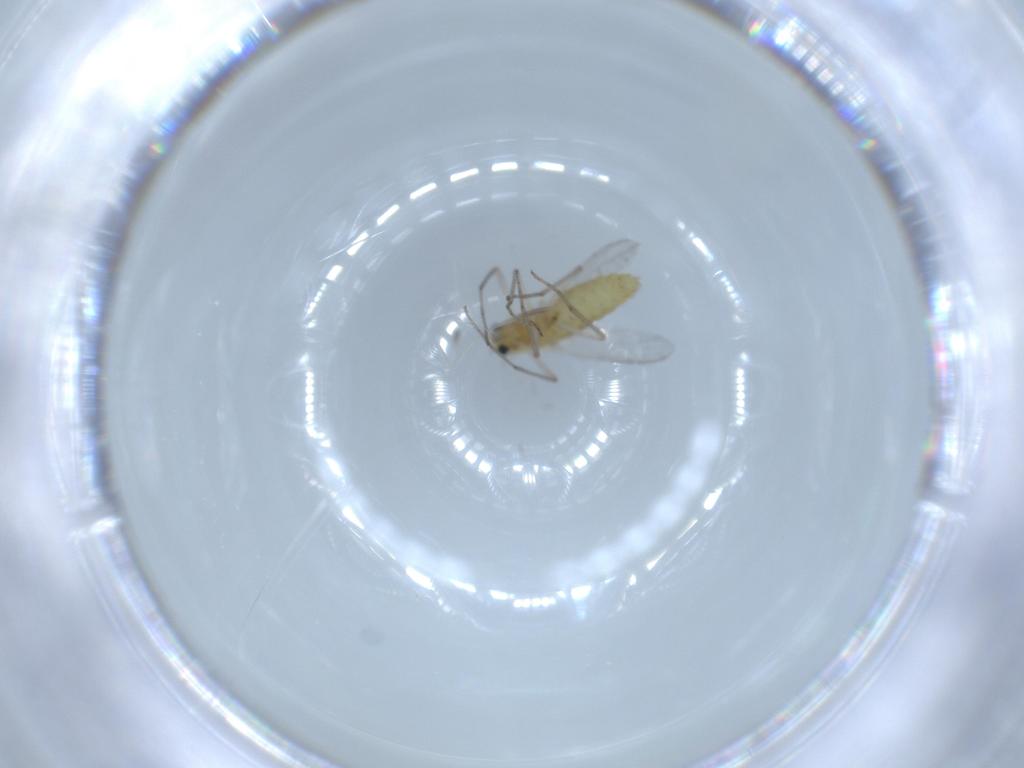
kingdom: Animalia
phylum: Arthropoda
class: Insecta
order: Diptera
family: Chironomidae
